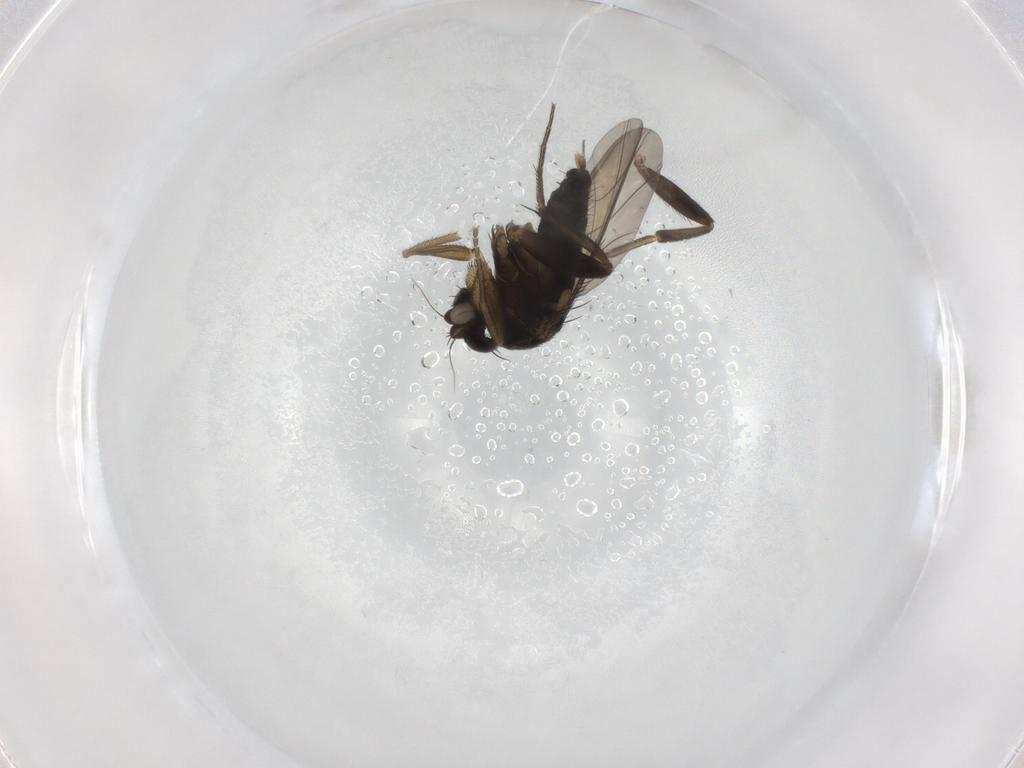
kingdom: Animalia
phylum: Arthropoda
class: Insecta
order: Diptera
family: Phoridae
